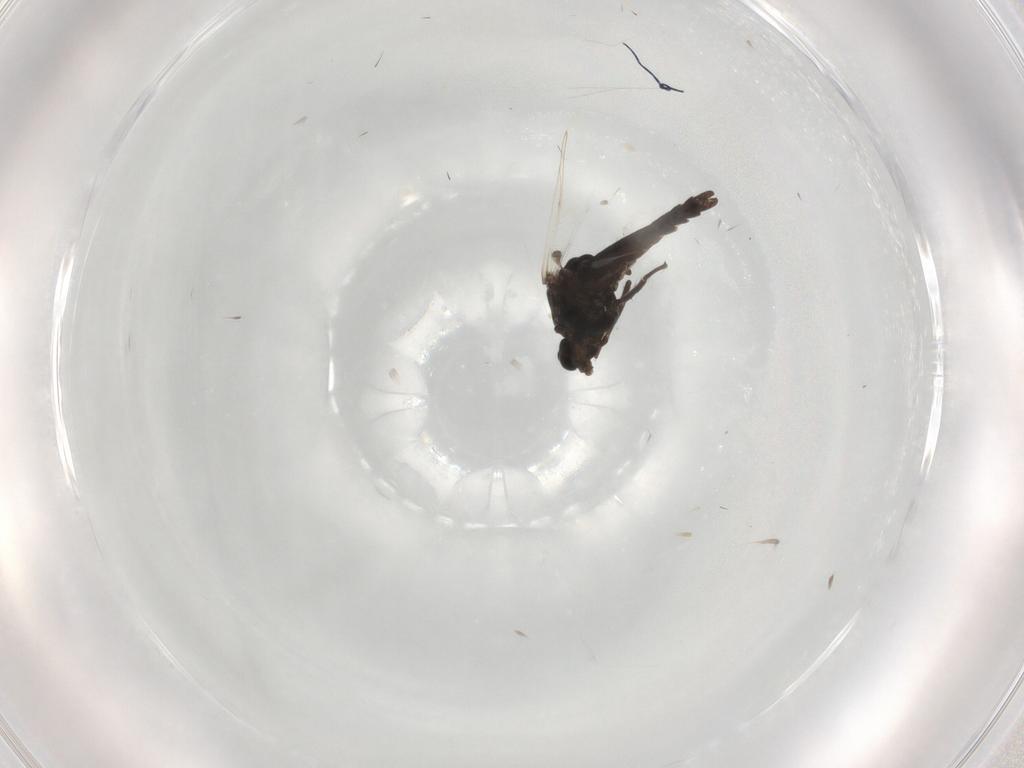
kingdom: Animalia
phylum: Arthropoda
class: Insecta
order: Diptera
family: Chironomidae
